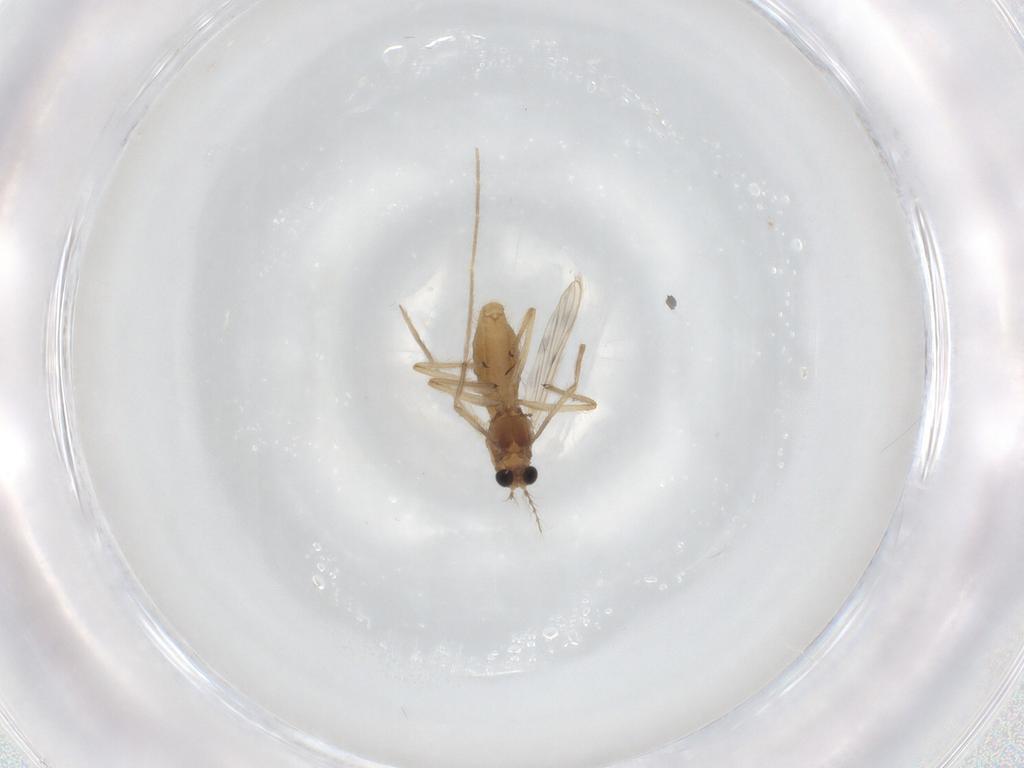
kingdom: Animalia
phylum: Arthropoda
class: Insecta
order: Diptera
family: Chironomidae
